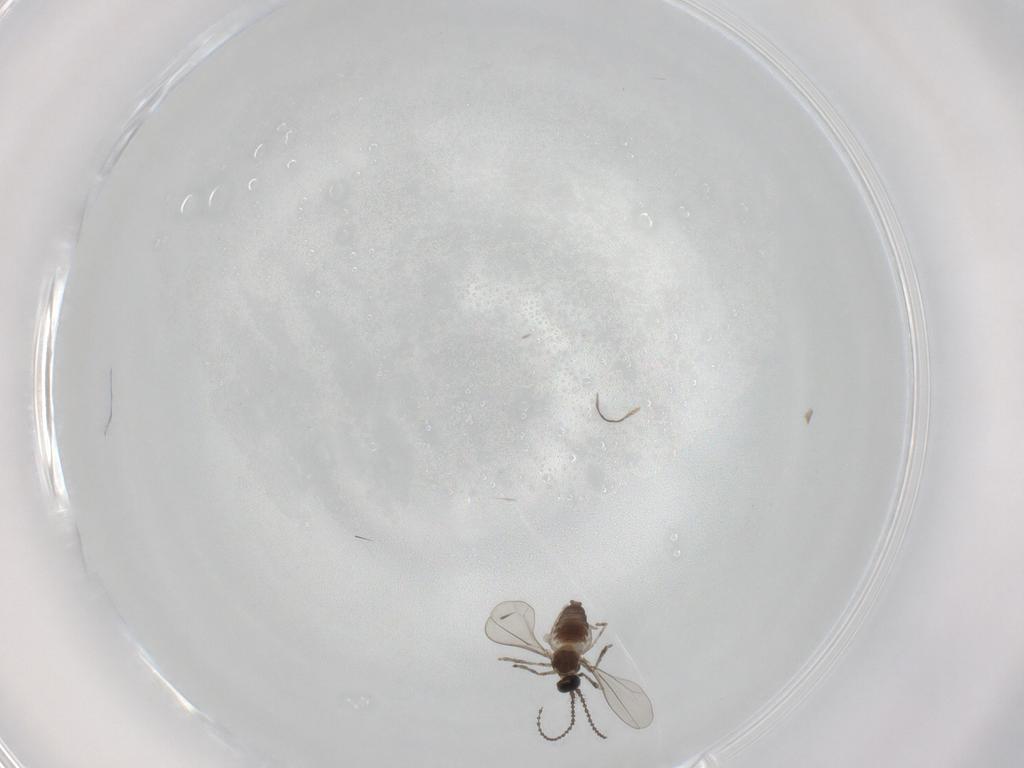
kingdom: Animalia
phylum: Arthropoda
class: Insecta
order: Diptera
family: Cecidomyiidae
